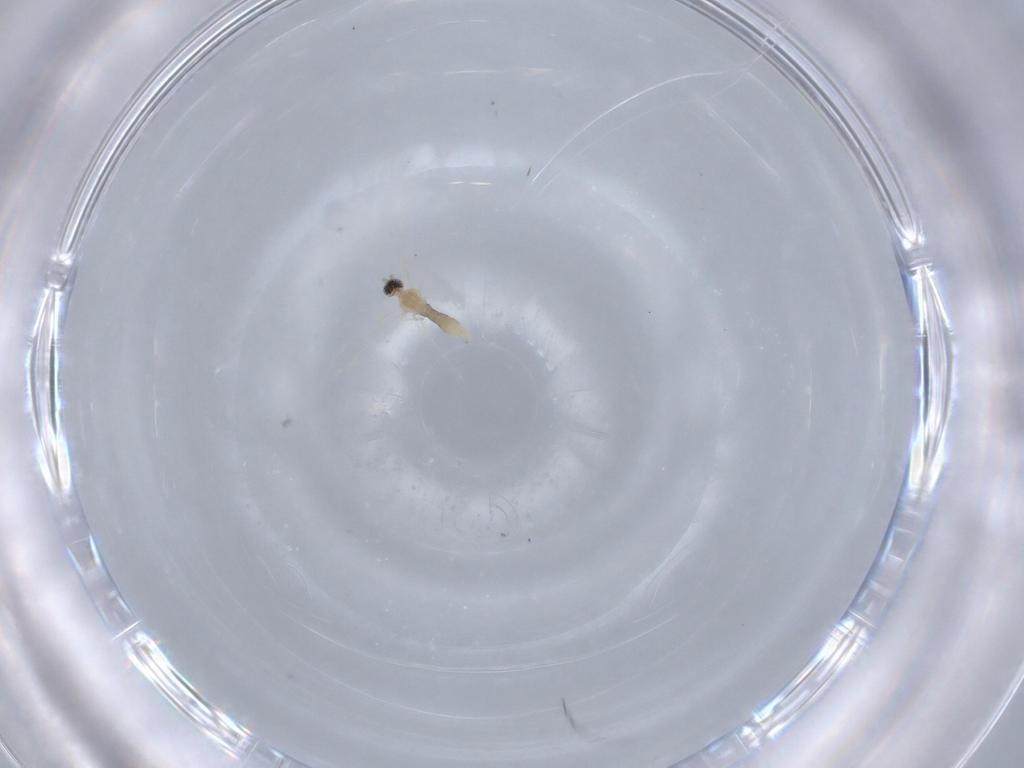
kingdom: Animalia
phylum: Arthropoda
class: Insecta
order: Diptera
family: Cecidomyiidae
